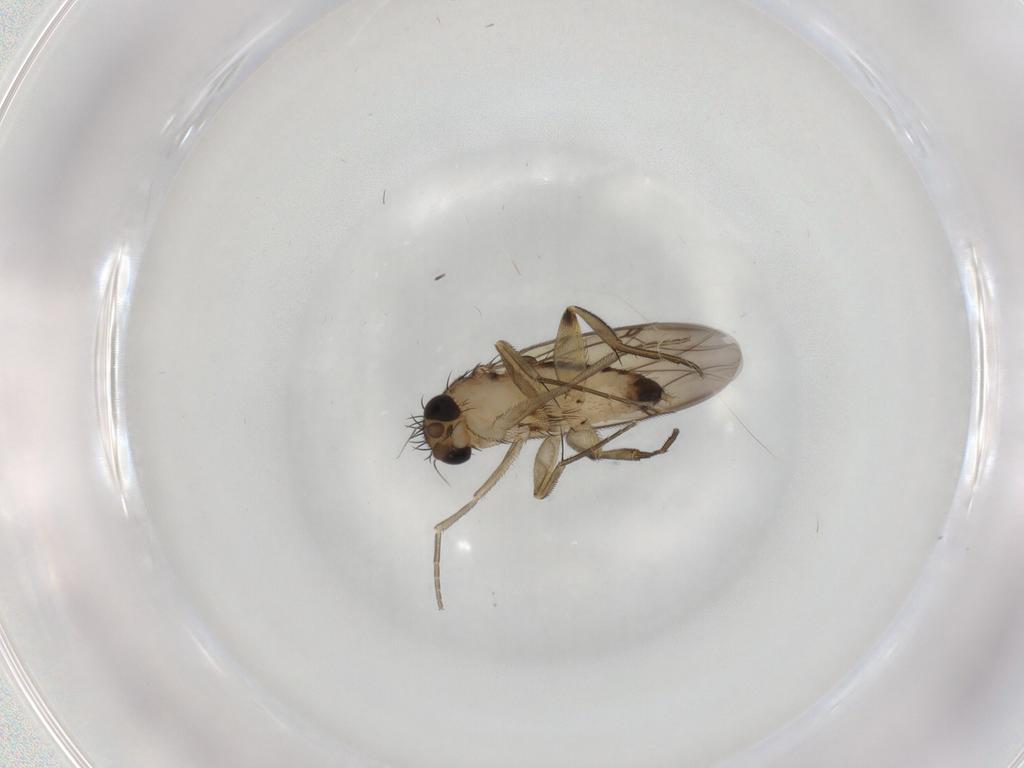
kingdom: Animalia
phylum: Arthropoda
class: Insecta
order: Diptera
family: Phoridae
